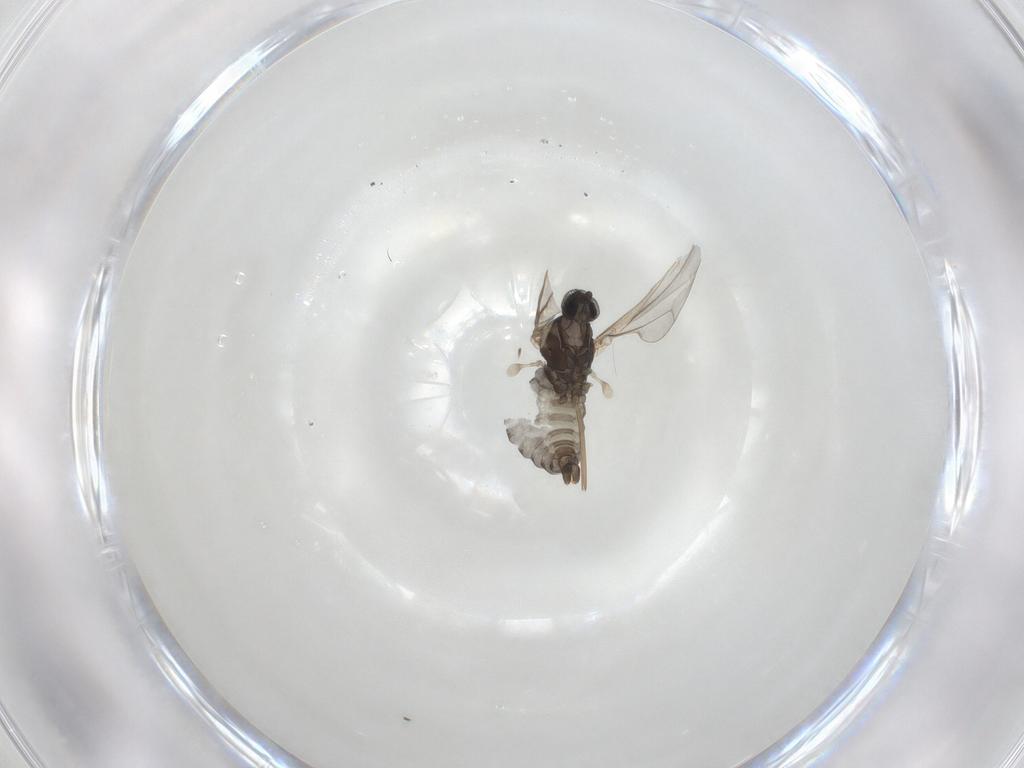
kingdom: Animalia
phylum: Arthropoda
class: Insecta
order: Diptera
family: Cecidomyiidae
